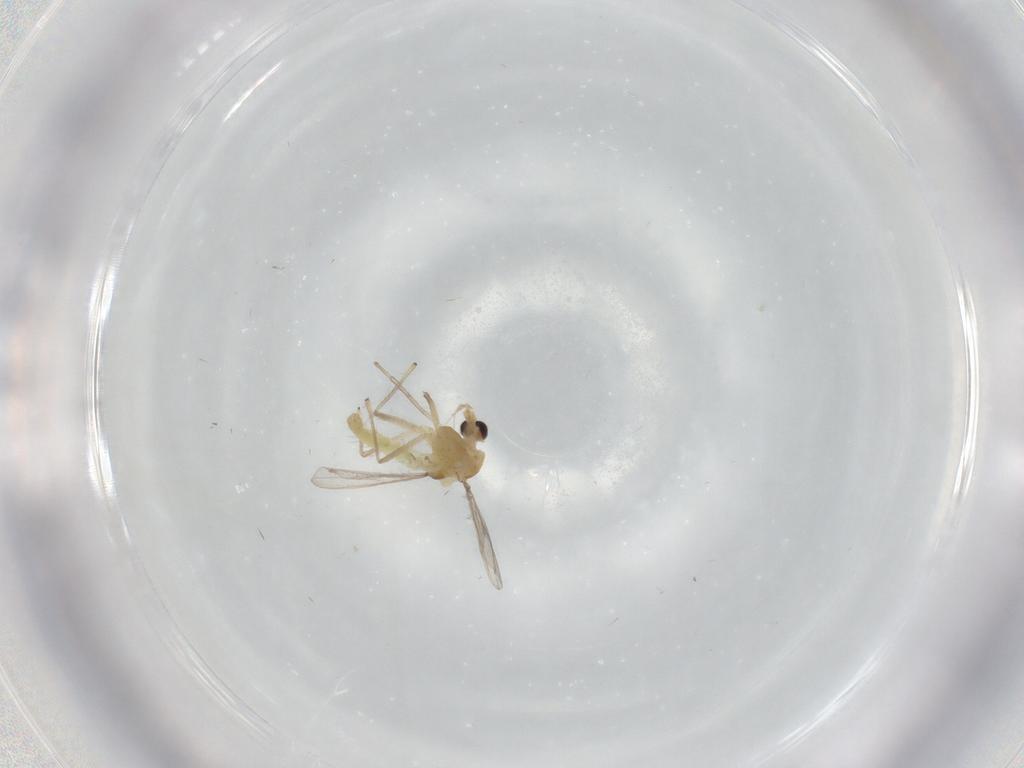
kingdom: Animalia
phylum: Arthropoda
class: Insecta
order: Diptera
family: Chironomidae
